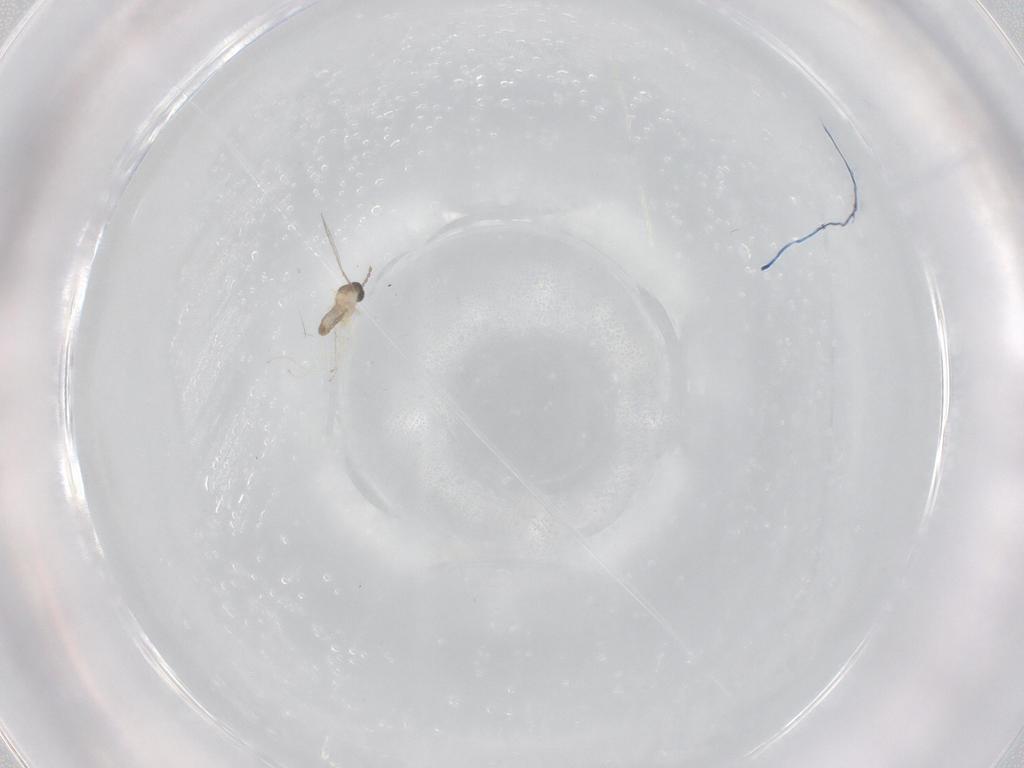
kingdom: Animalia
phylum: Arthropoda
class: Insecta
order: Diptera
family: Cecidomyiidae
